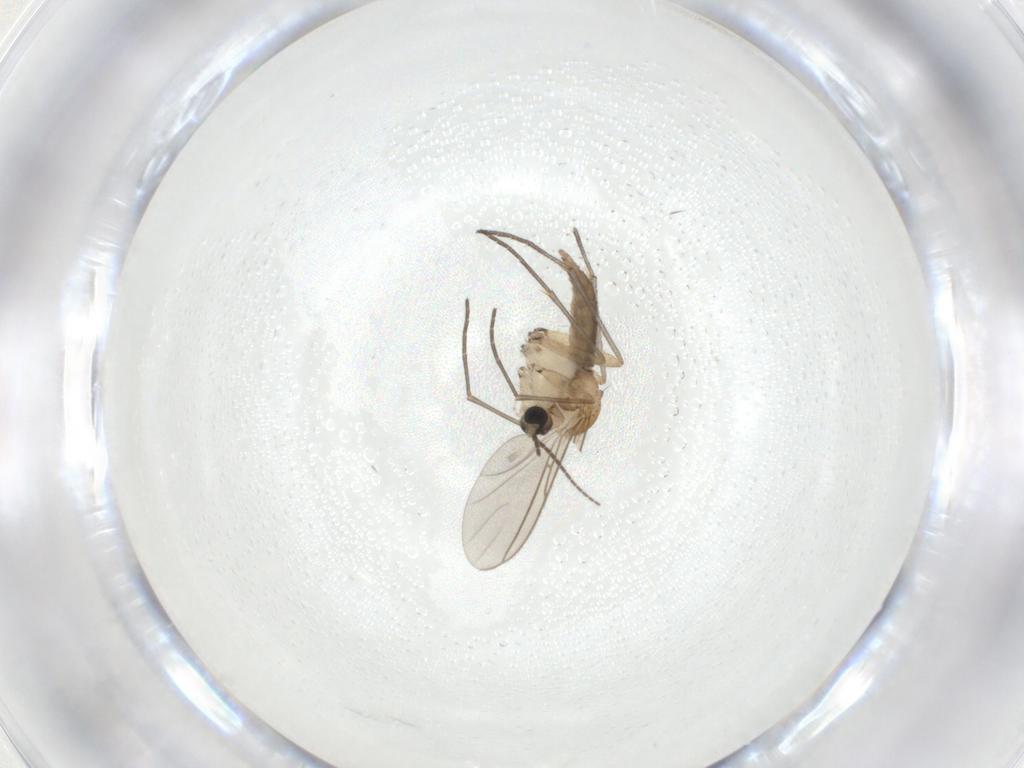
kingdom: Animalia
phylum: Arthropoda
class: Insecta
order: Diptera
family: Sciaridae
